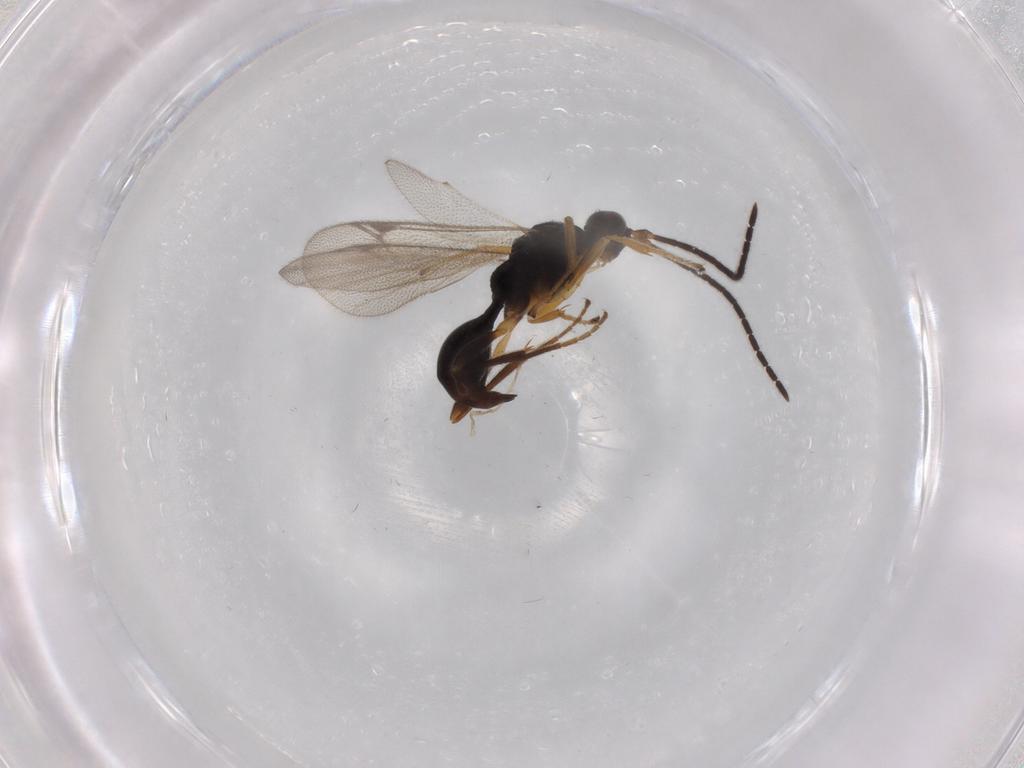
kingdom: Animalia
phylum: Arthropoda
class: Insecta
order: Hymenoptera
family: Proctotrupidae
